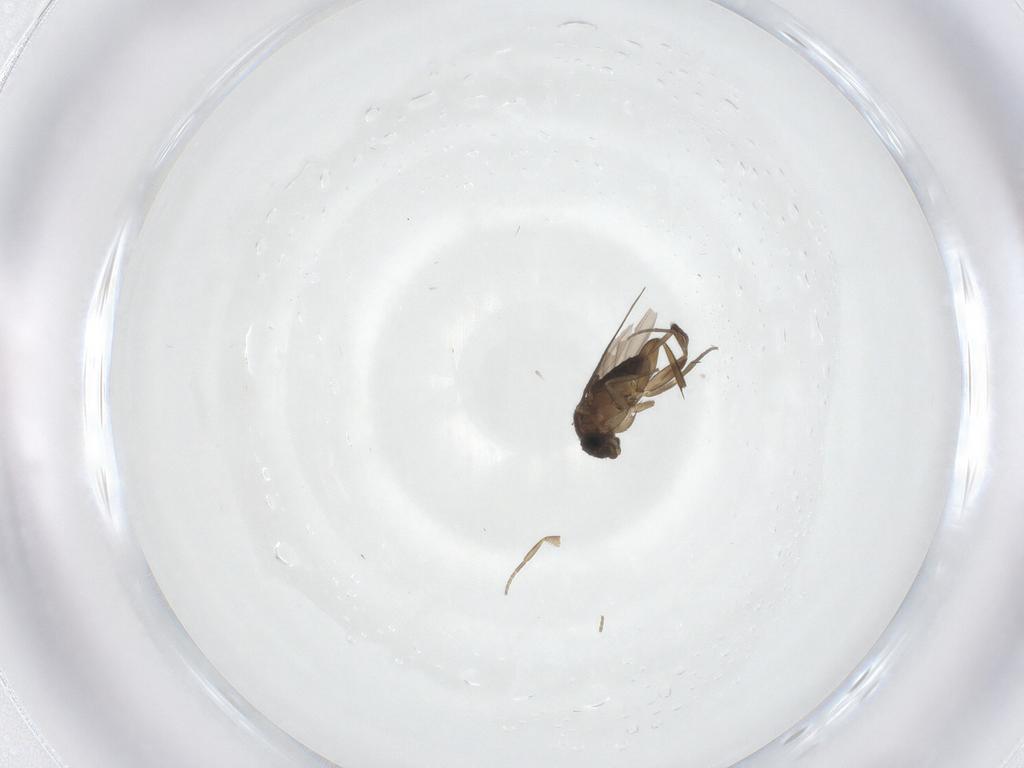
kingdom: Animalia
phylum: Arthropoda
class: Insecta
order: Diptera
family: Phoridae
